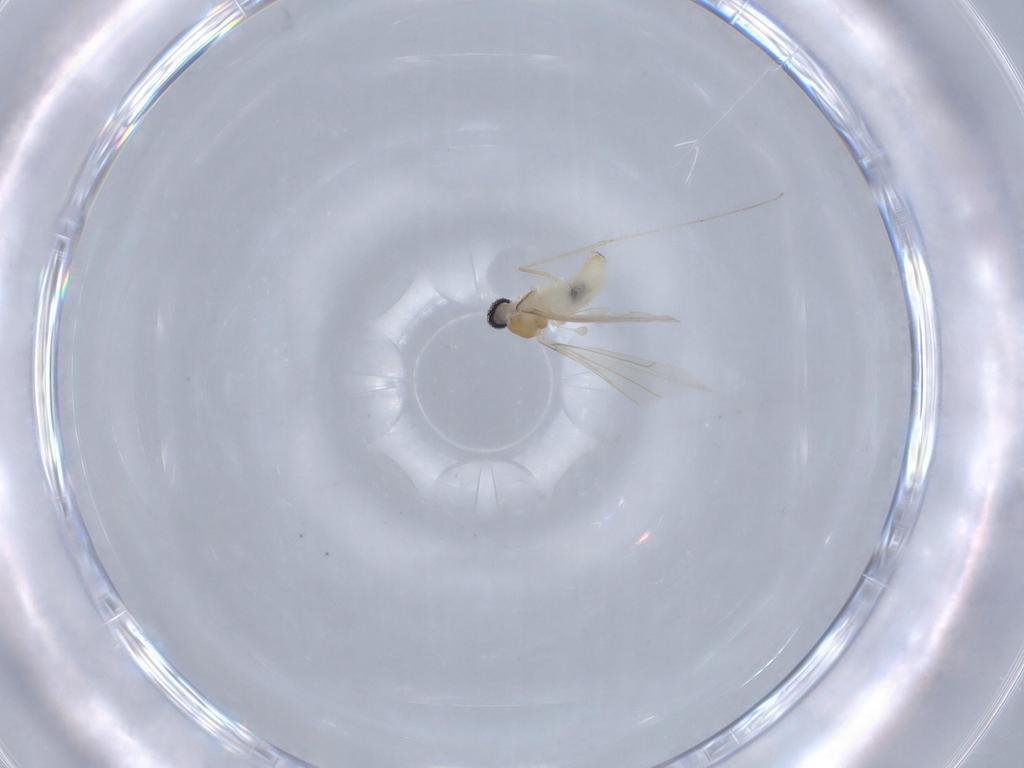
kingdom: Animalia
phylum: Arthropoda
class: Insecta
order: Diptera
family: Cecidomyiidae
